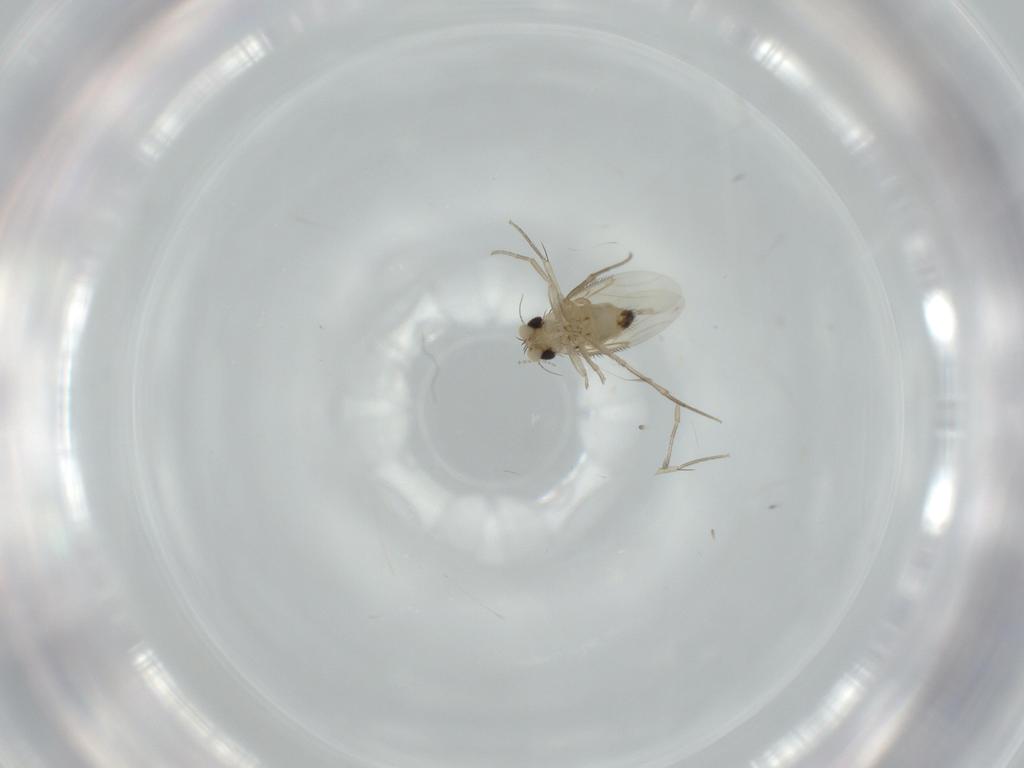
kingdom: Animalia
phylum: Arthropoda
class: Insecta
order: Diptera
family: Phoridae
